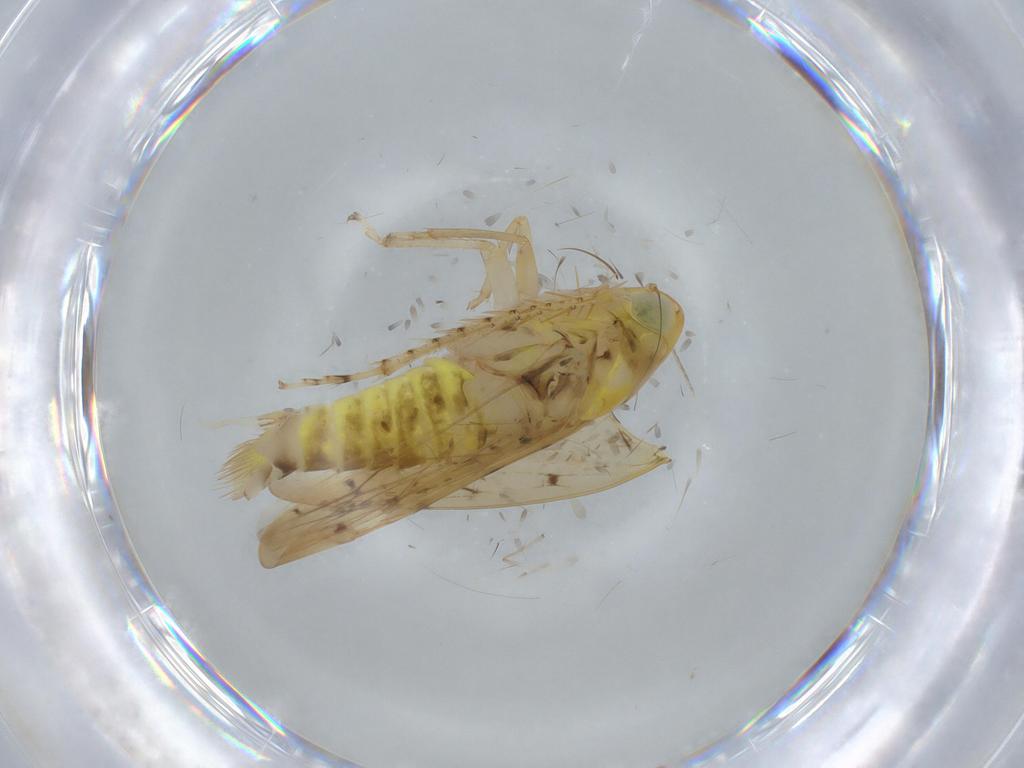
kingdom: Animalia
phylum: Arthropoda
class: Insecta
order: Hemiptera
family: Cicadellidae
